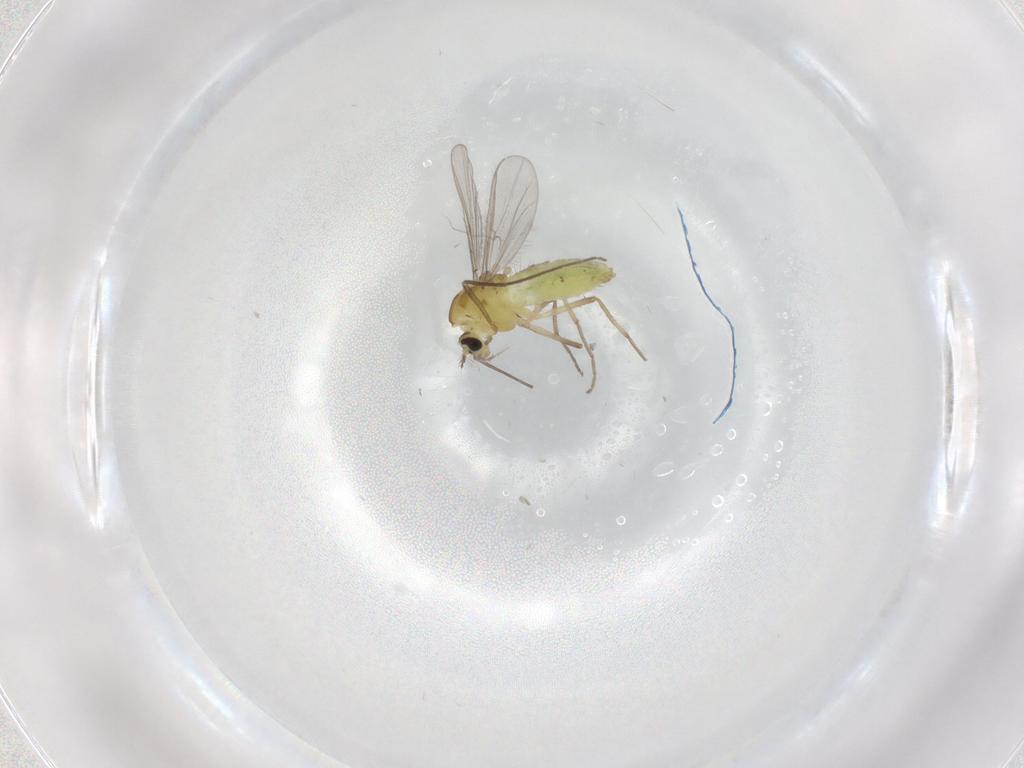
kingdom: Animalia
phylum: Arthropoda
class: Insecta
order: Diptera
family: Chironomidae
